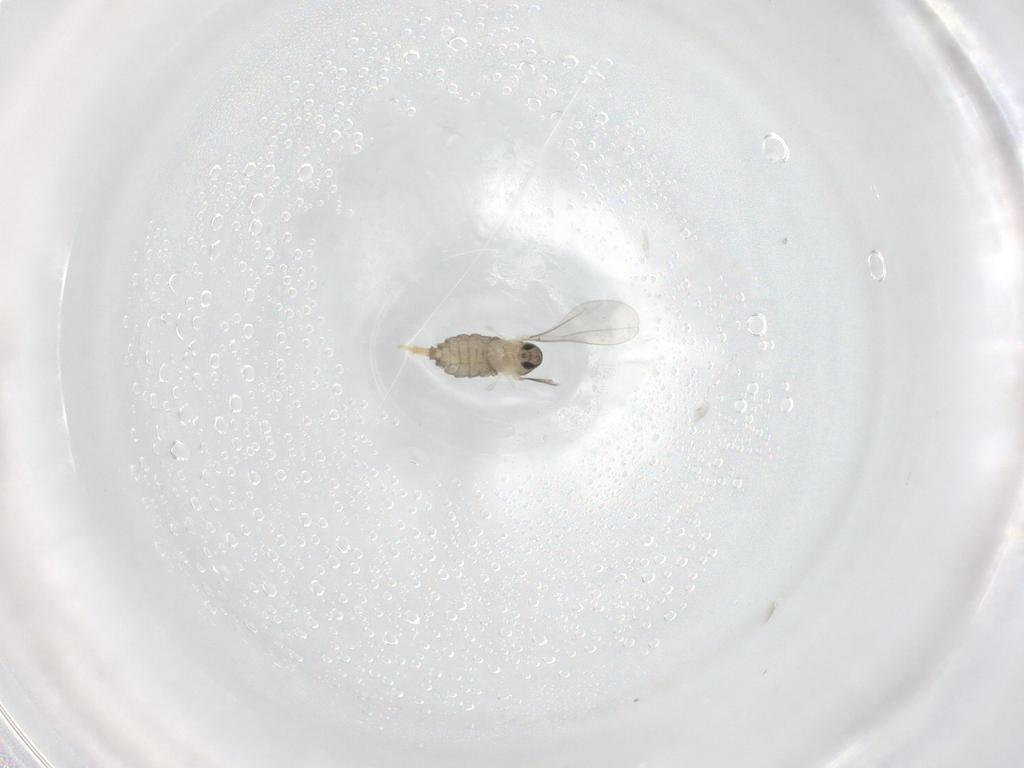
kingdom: Animalia
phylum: Arthropoda
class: Insecta
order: Diptera
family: Cecidomyiidae
